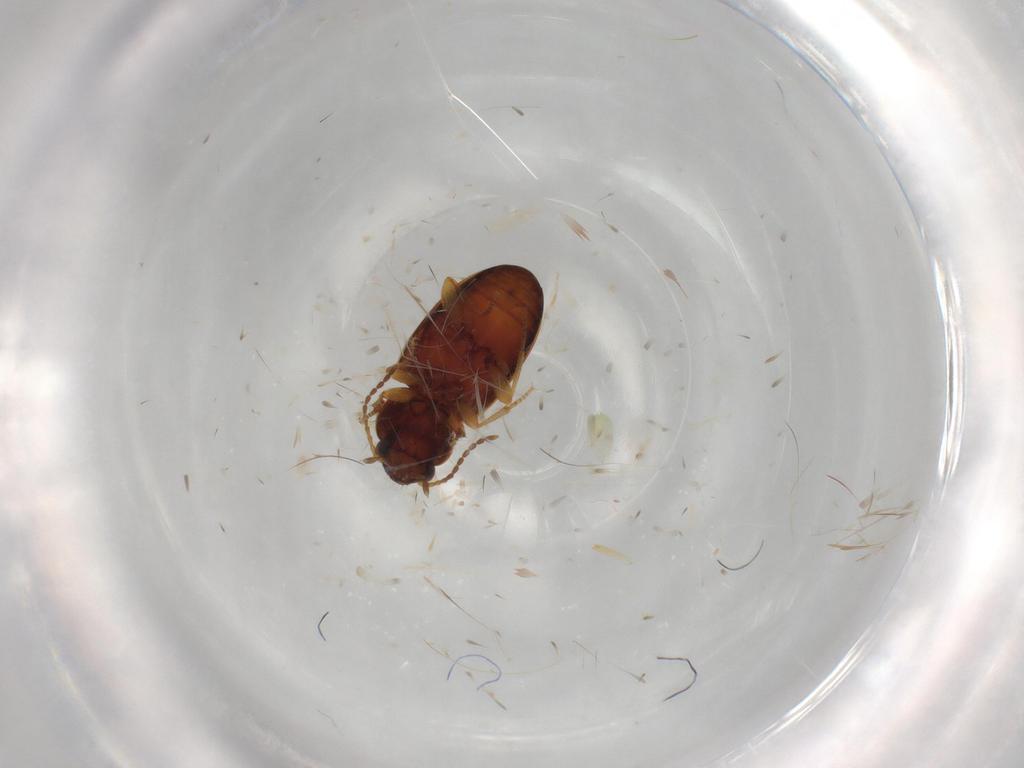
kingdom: Animalia
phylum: Arthropoda
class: Insecta
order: Coleoptera
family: Carabidae
